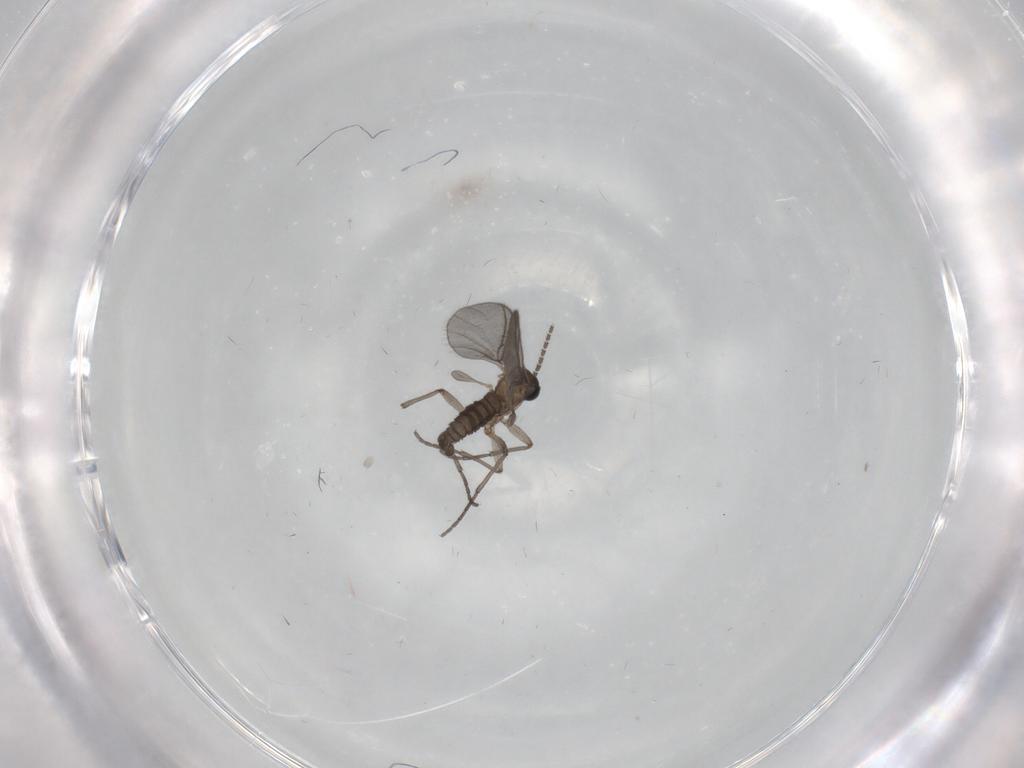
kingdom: Animalia
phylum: Arthropoda
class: Insecta
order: Diptera
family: Sciaridae
